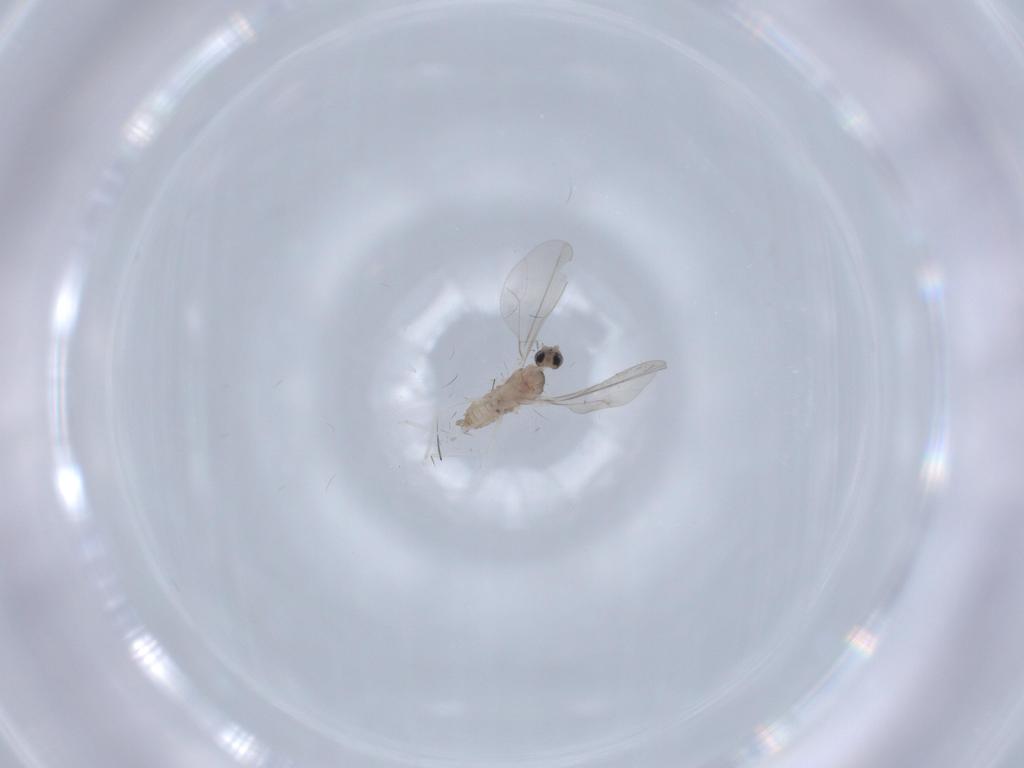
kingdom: Animalia
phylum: Arthropoda
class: Insecta
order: Diptera
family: Cecidomyiidae
